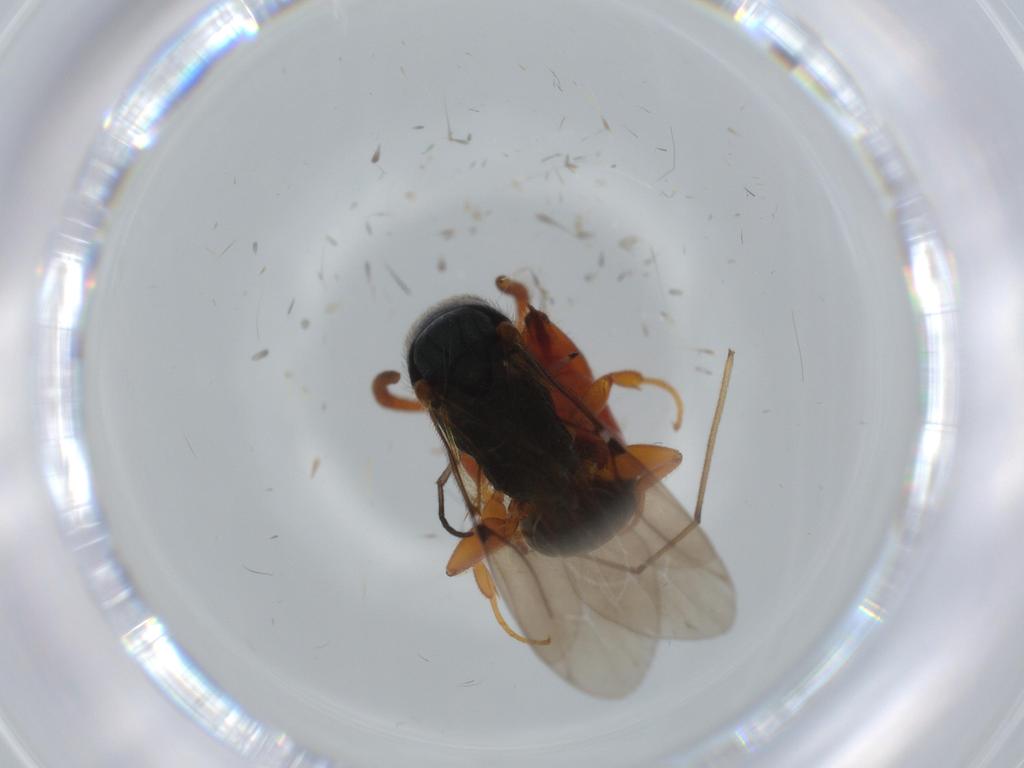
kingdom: Animalia
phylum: Arthropoda
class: Insecta
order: Hymenoptera
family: Bethylidae
